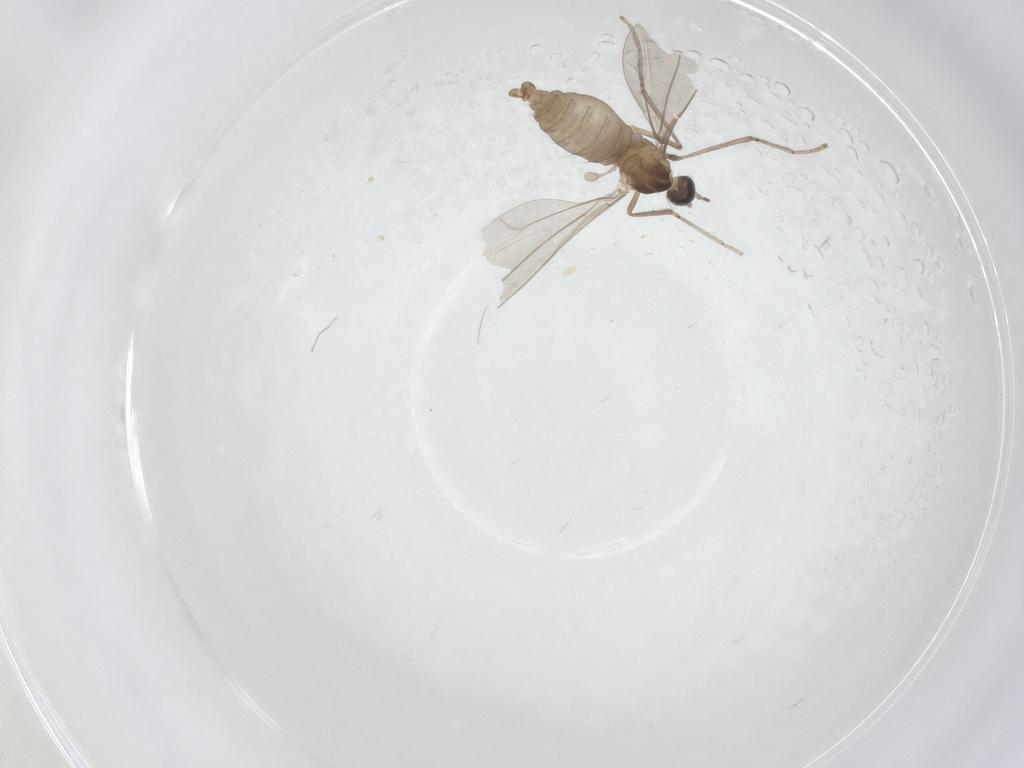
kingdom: Animalia
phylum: Arthropoda
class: Insecta
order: Diptera
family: Cecidomyiidae
